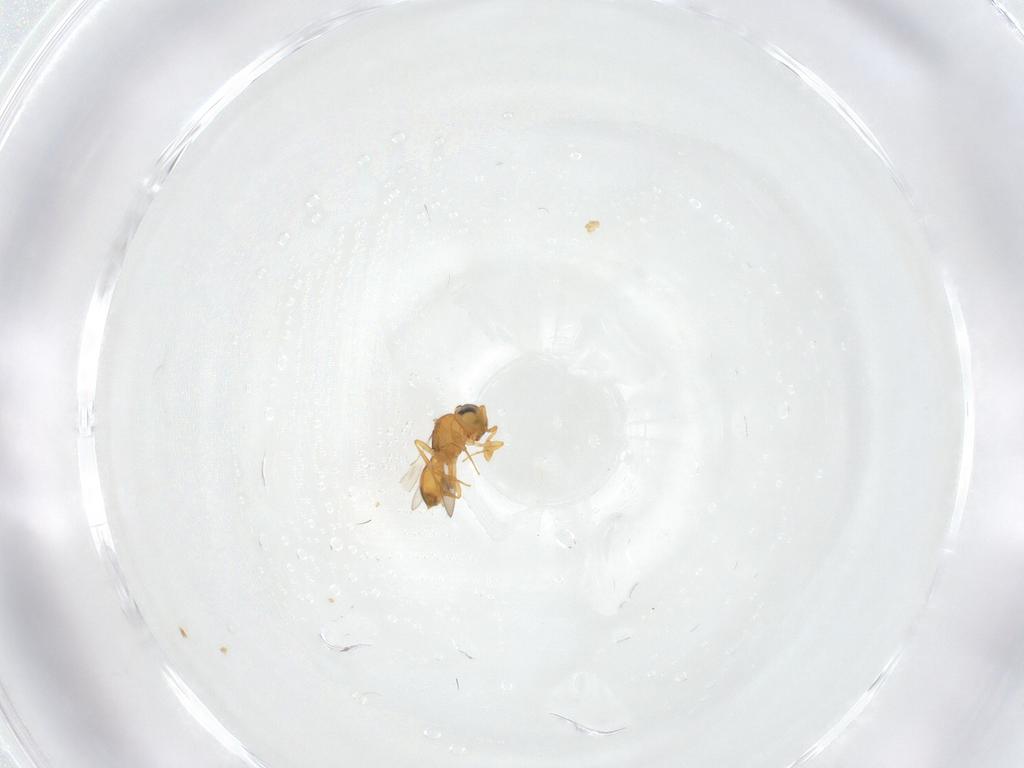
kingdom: Animalia
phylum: Arthropoda
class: Insecta
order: Hymenoptera
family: Scelionidae
